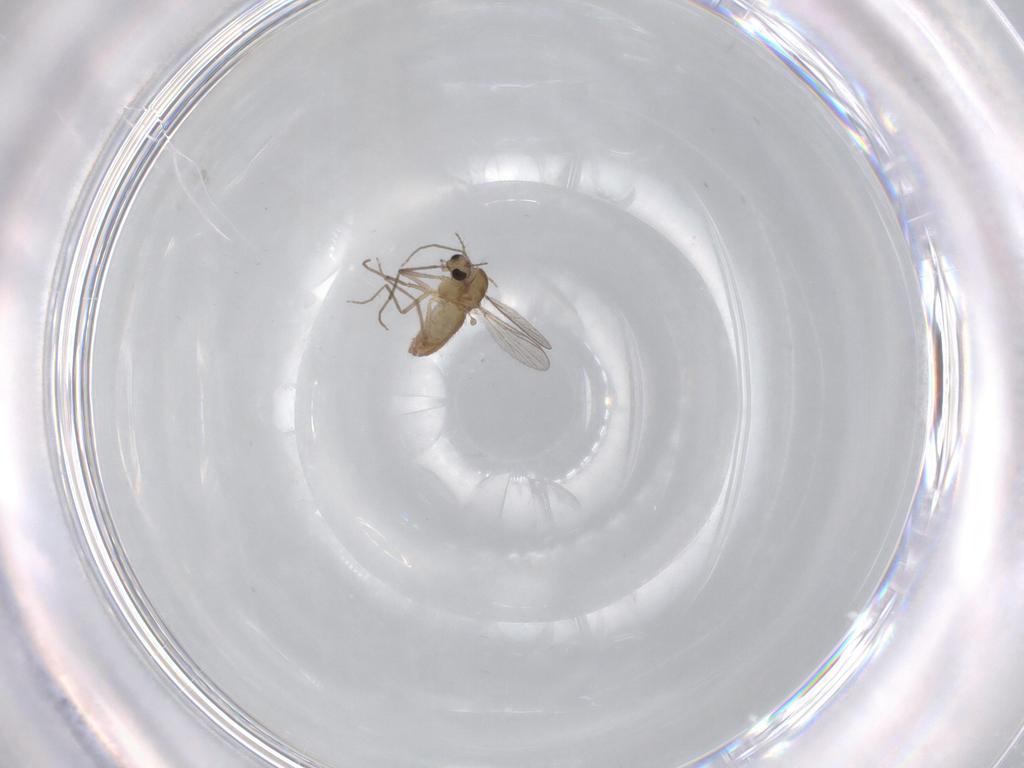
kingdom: Animalia
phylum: Arthropoda
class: Insecta
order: Diptera
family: Chironomidae
